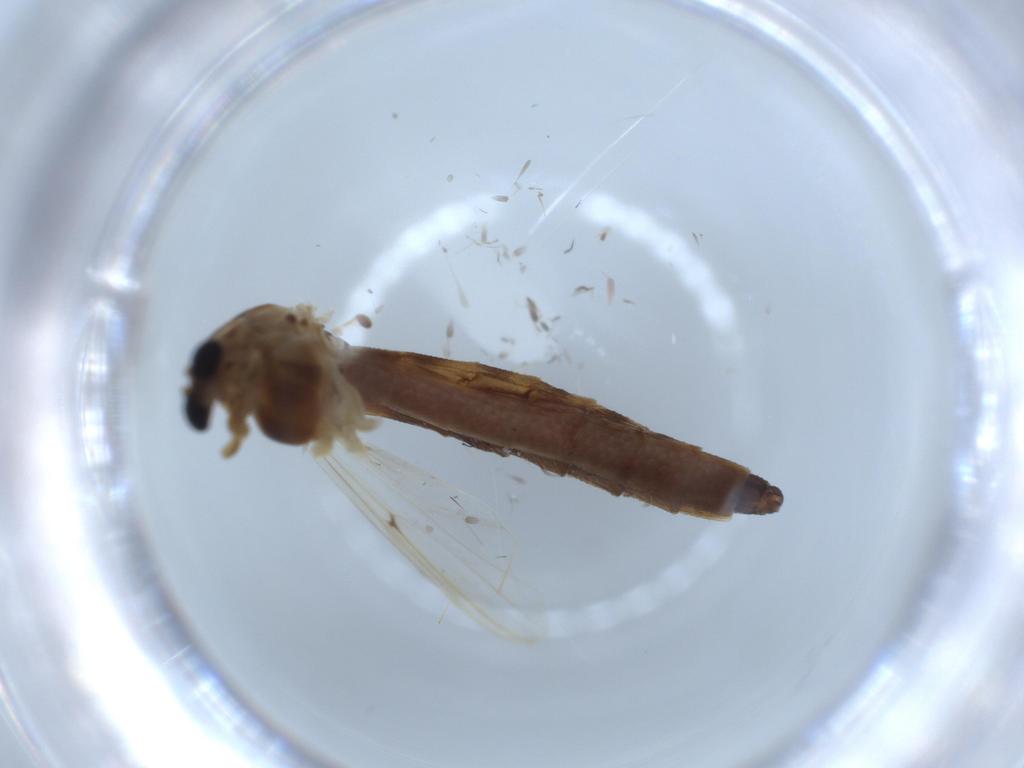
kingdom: Animalia
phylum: Arthropoda
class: Insecta
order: Diptera
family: Chironomidae
